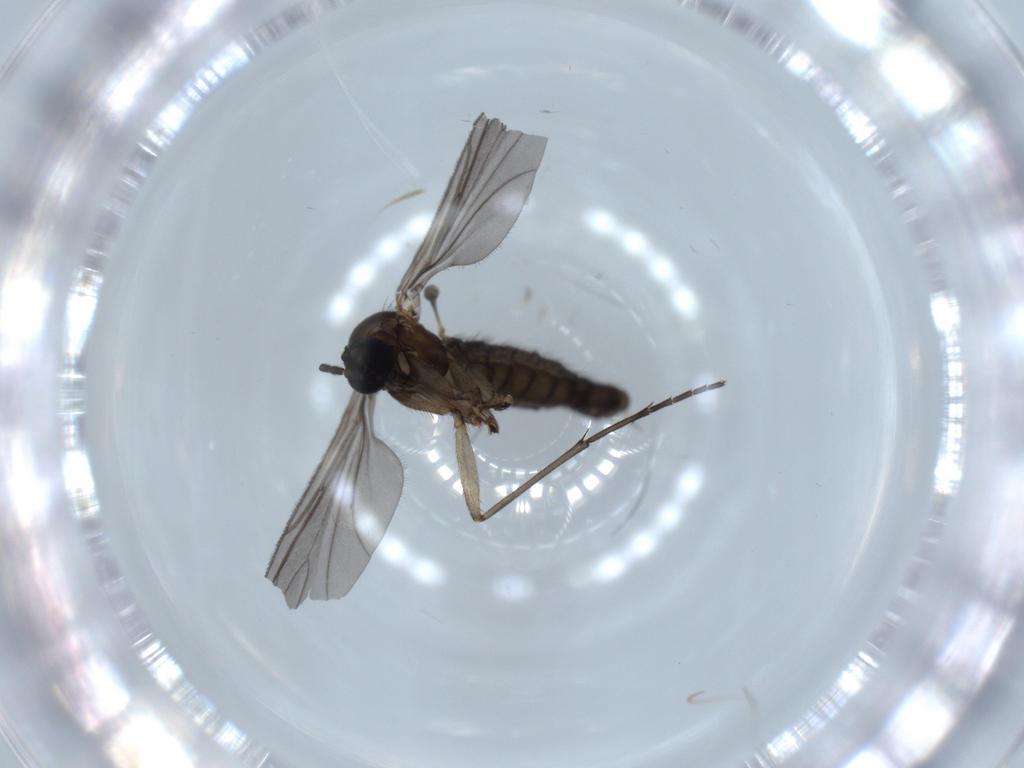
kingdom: Animalia
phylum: Arthropoda
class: Insecta
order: Diptera
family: Sciaridae
